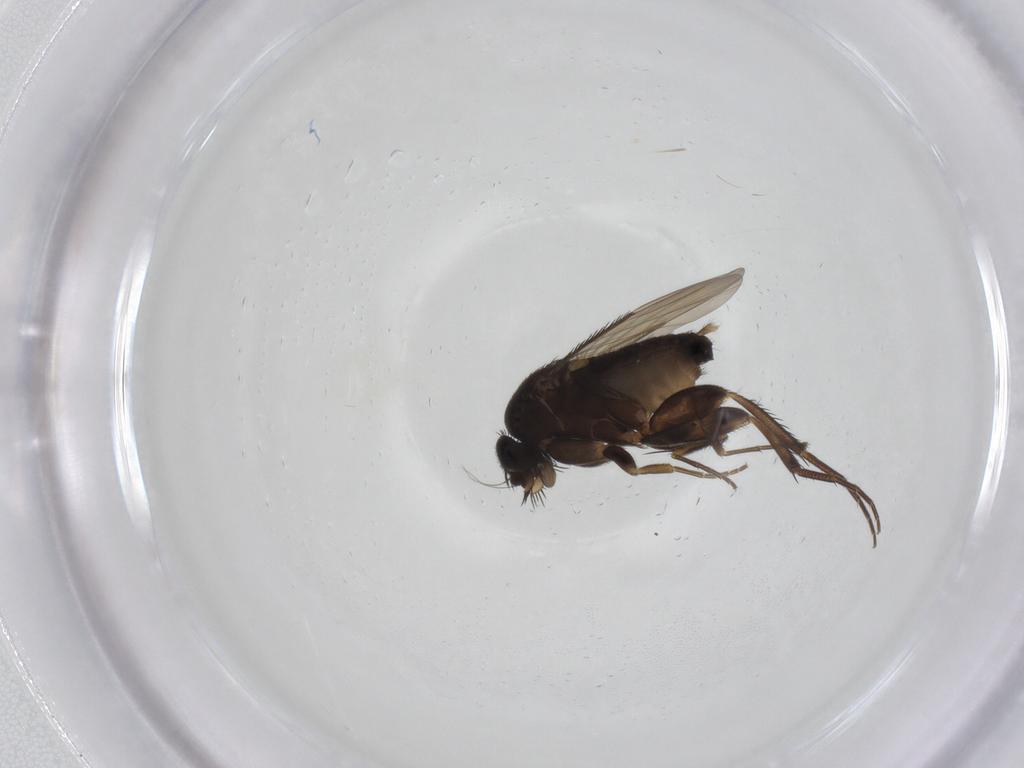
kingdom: Animalia
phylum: Arthropoda
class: Insecta
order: Diptera
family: Phoridae
